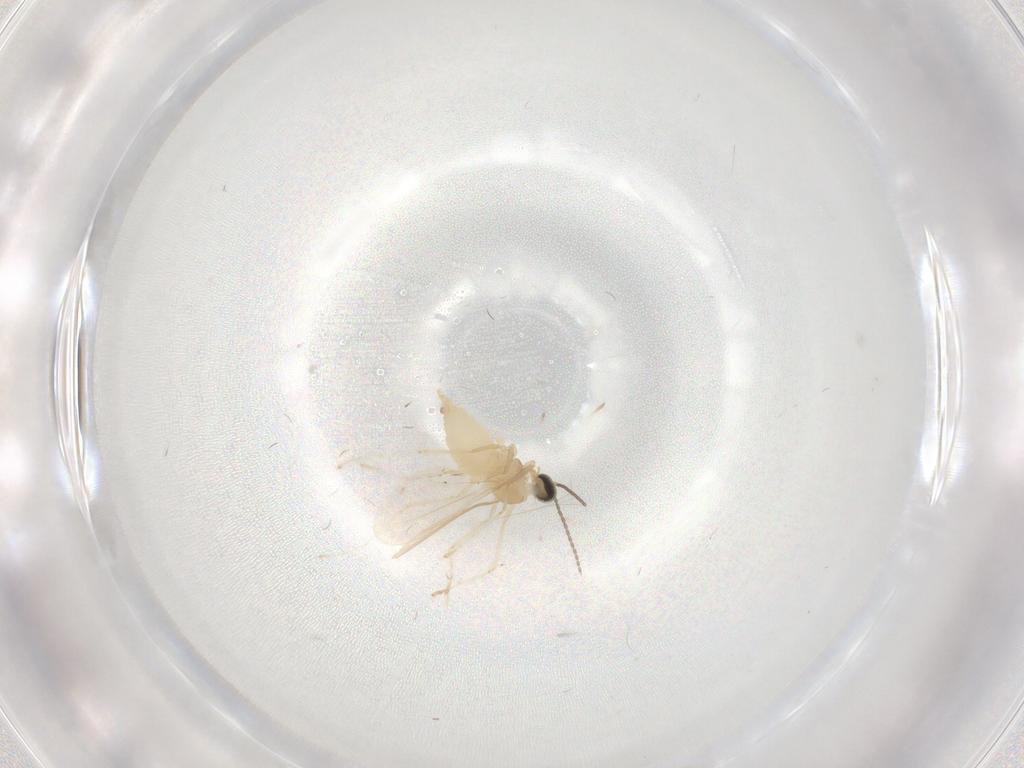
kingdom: Animalia
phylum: Arthropoda
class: Insecta
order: Diptera
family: Cecidomyiidae
